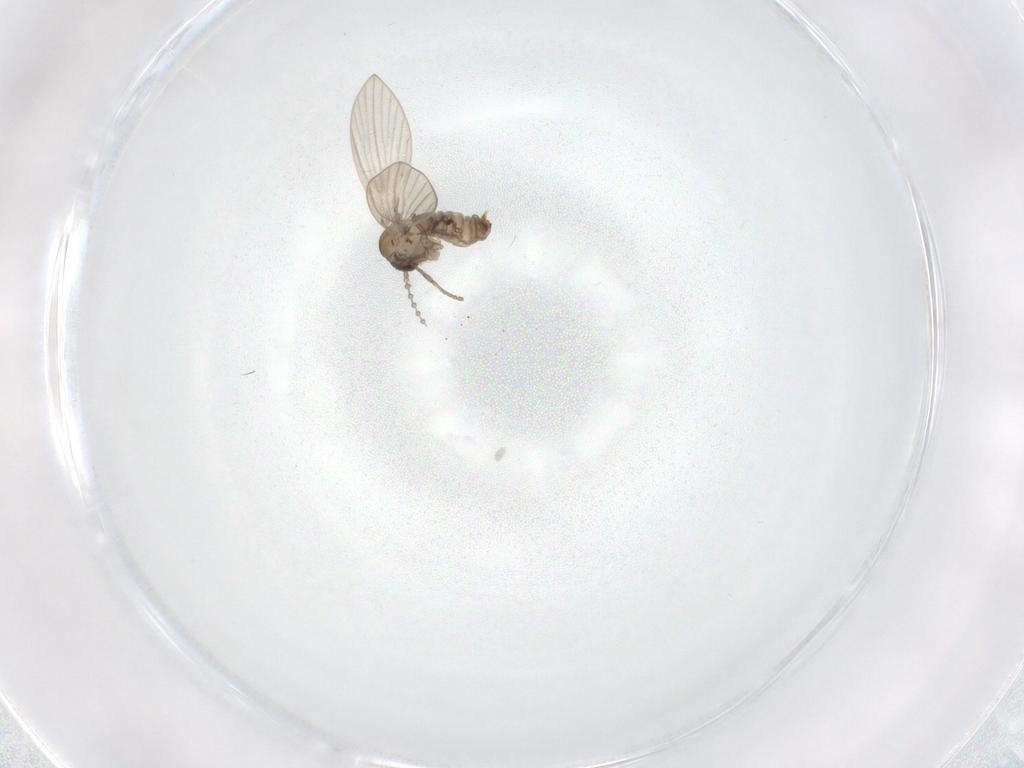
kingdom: Animalia
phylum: Arthropoda
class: Insecta
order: Diptera
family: Psychodidae
